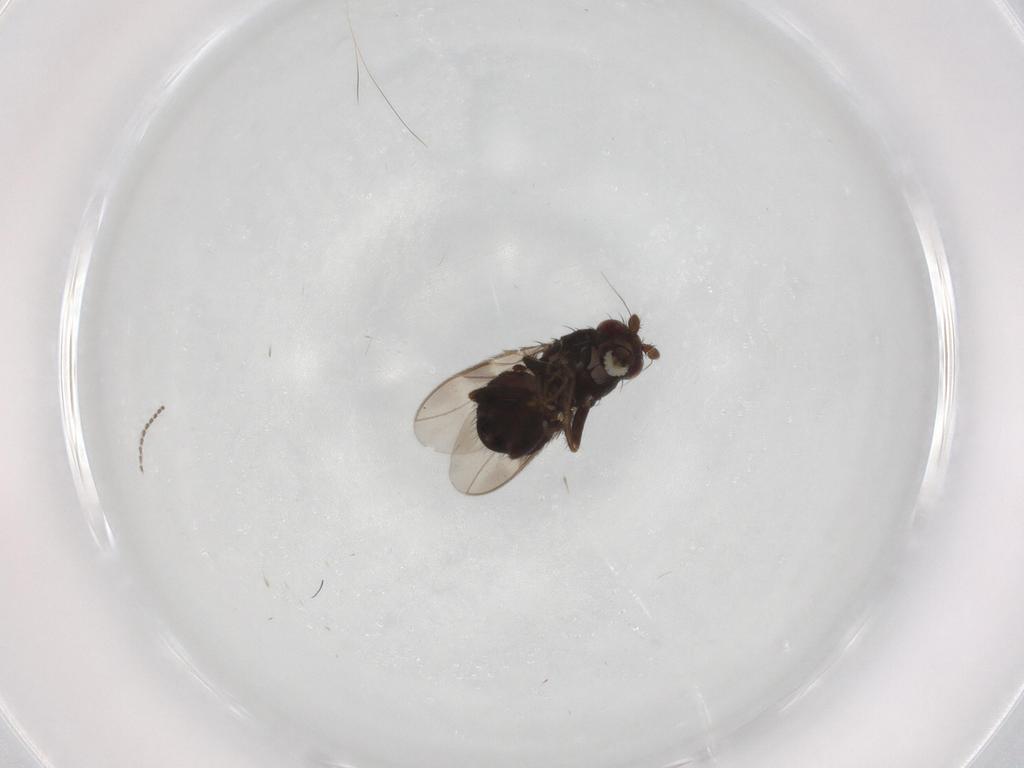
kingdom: Animalia
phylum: Arthropoda
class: Insecta
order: Diptera
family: Sphaeroceridae
